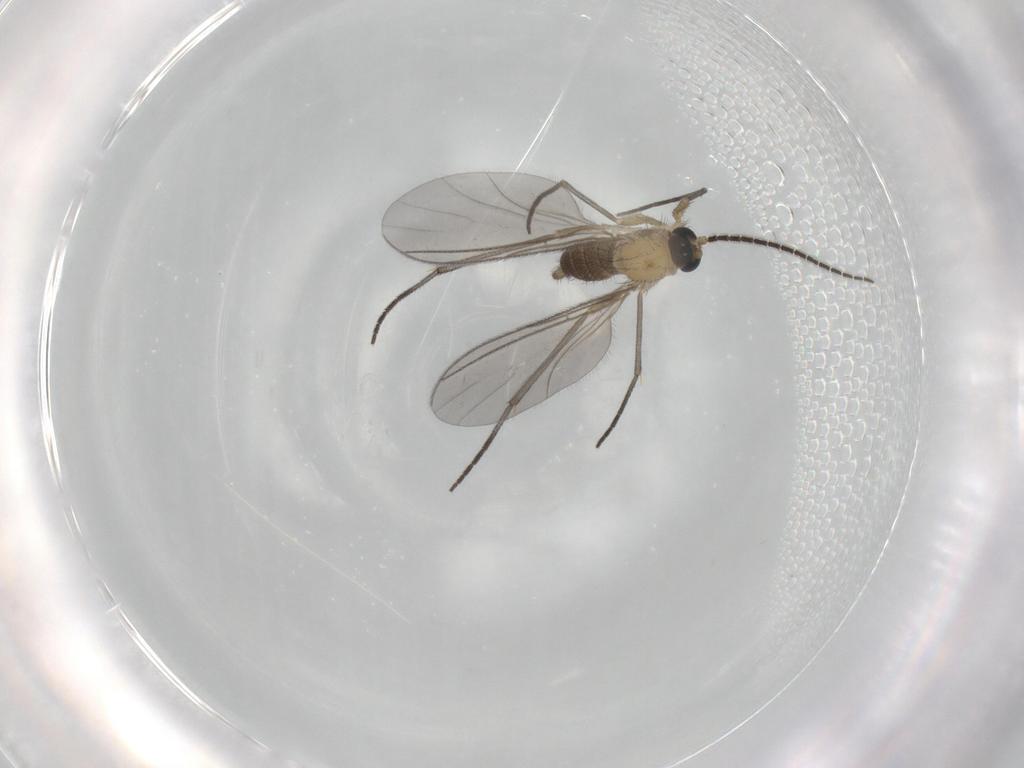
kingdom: Animalia
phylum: Arthropoda
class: Insecta
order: Diptera
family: Sciaridae
